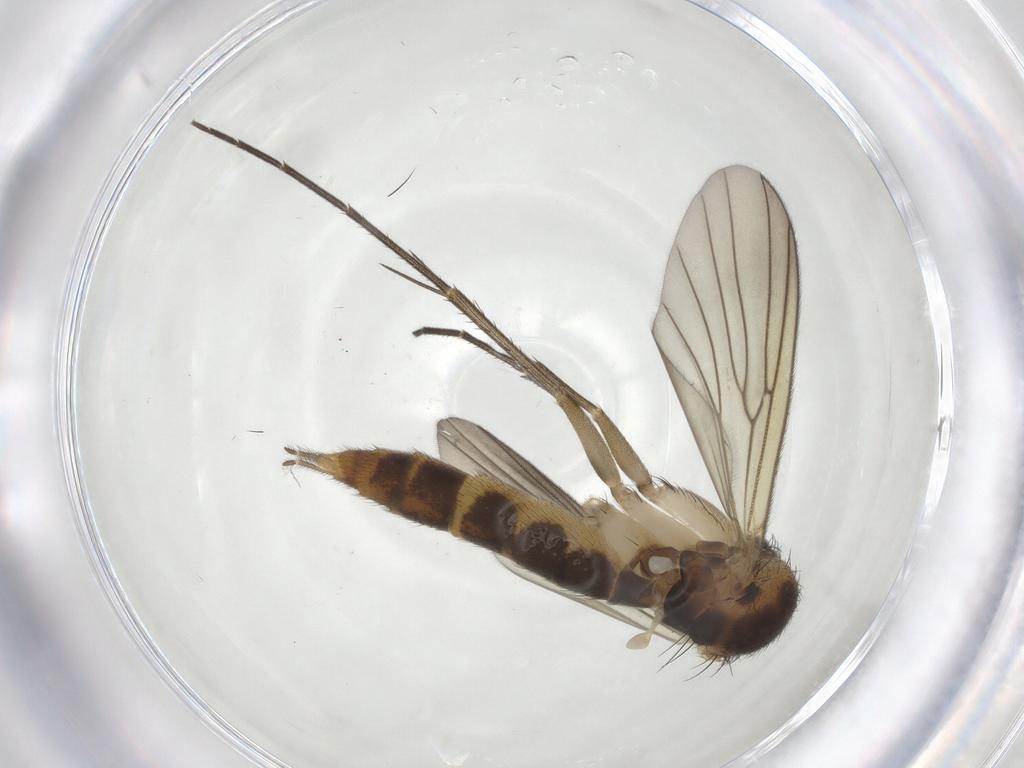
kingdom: Animalia
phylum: Arthropoda
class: Insecta
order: Diptera
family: Mycetophilidae
